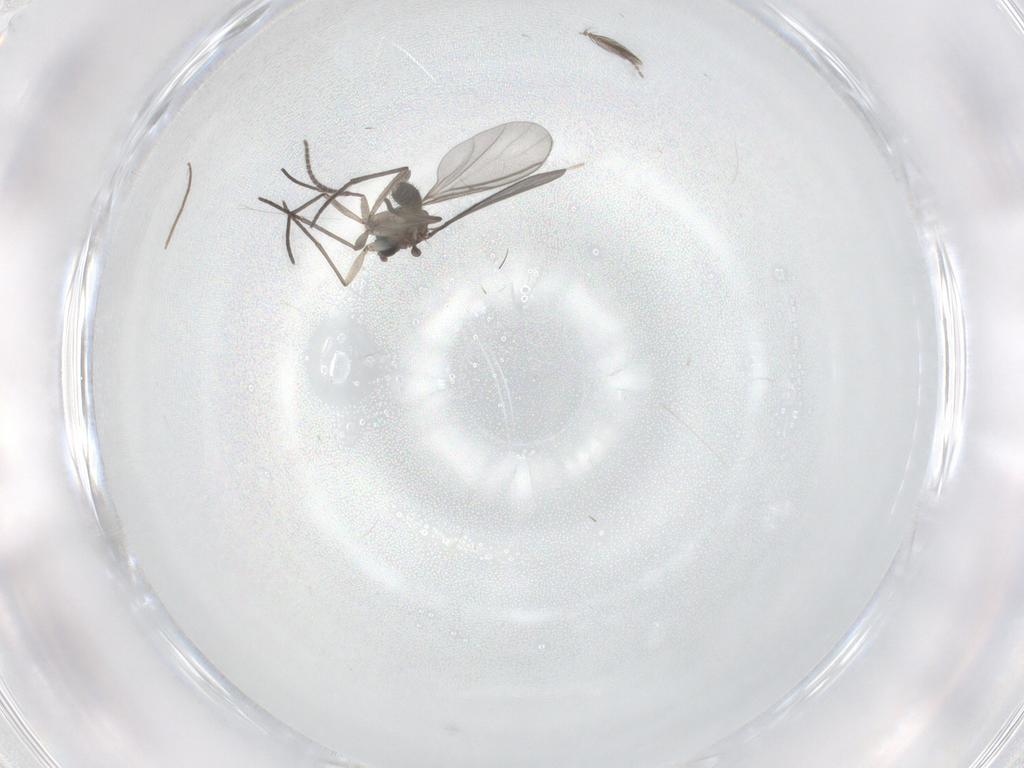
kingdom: Animalia
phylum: Arthropoda
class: Insecta
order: Diptera
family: Sciaridae
